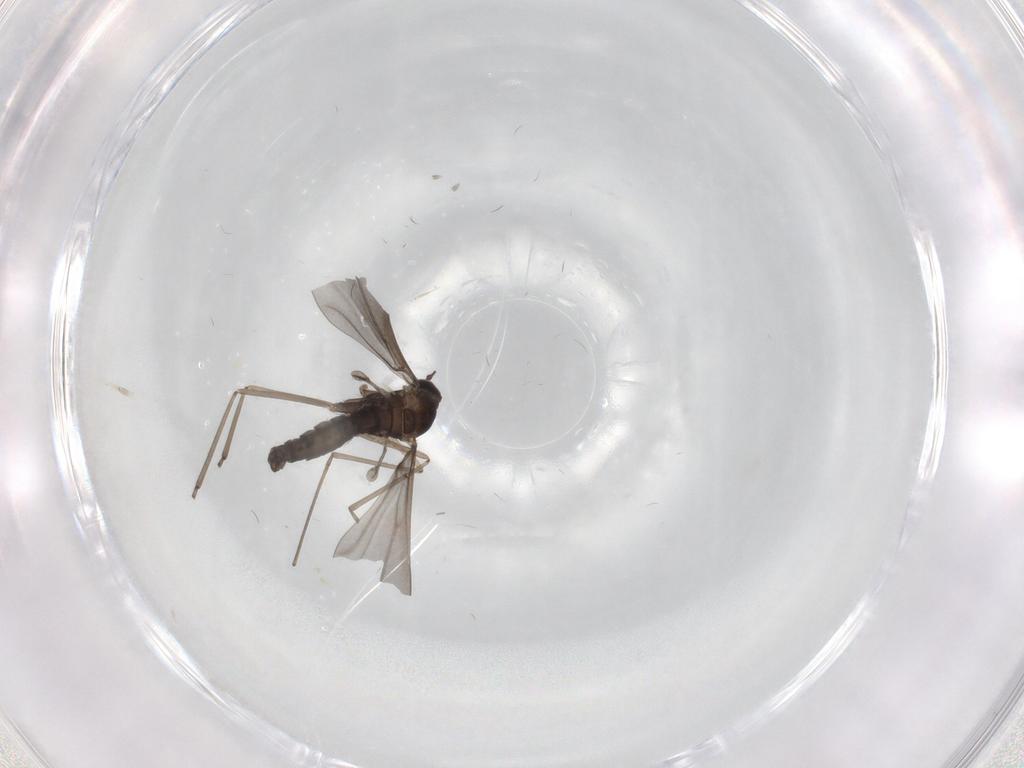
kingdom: Animalia
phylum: Arthropoda
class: Insecta
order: Diptera
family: Cecidomyiidae
